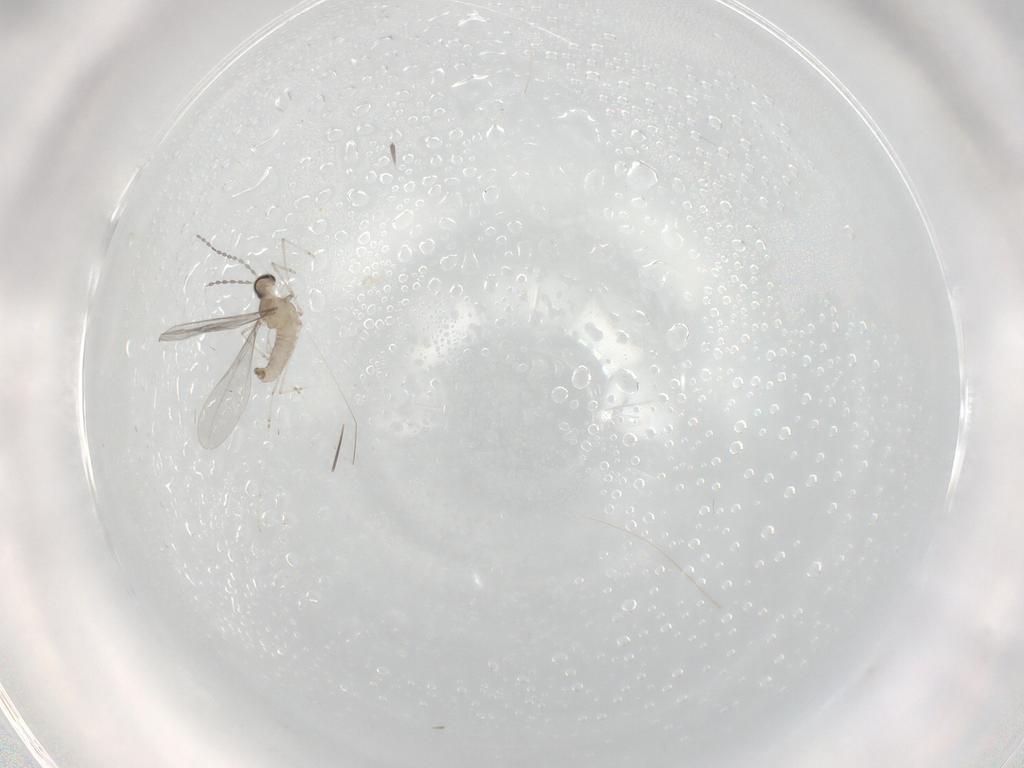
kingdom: Animalia
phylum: Arthropoda
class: Insecta
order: Diptera
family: Cecidomyiidae
